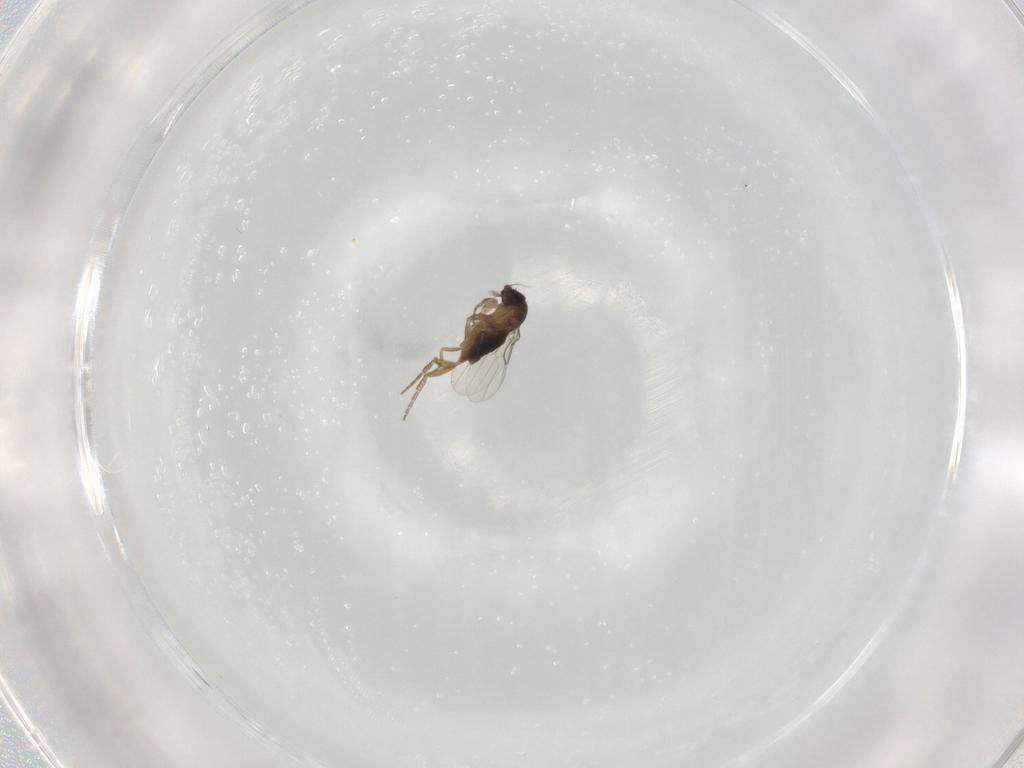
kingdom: Animalia
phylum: Arthropoda
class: Insecta
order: Diptera
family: Phoridae
